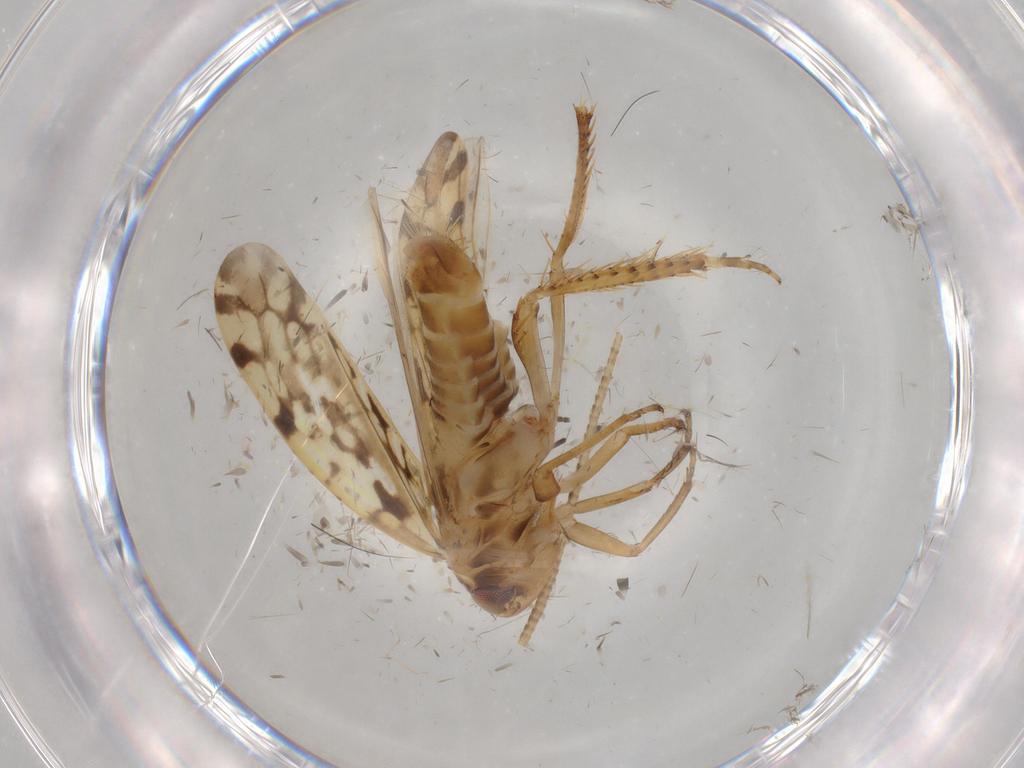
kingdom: Animalia
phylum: Arthropoda
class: Insecta
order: Hemiptera
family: Cicadellidae
